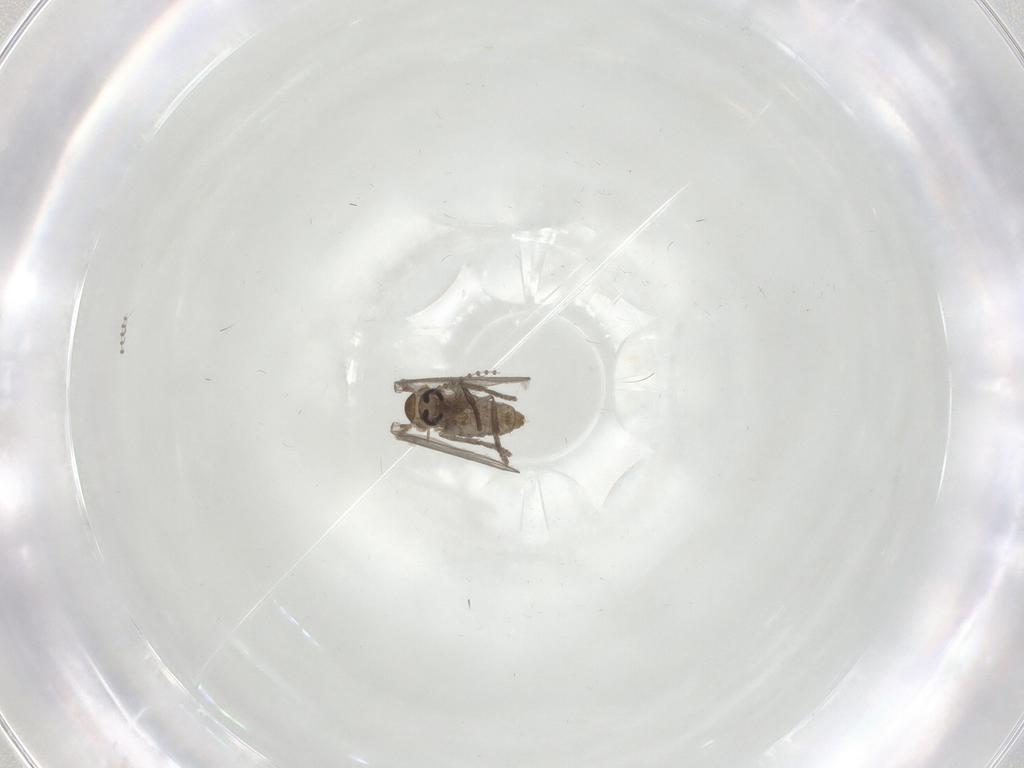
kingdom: Animalia
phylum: Arthropoda
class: Insecta
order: Diptera
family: Psychodidae
